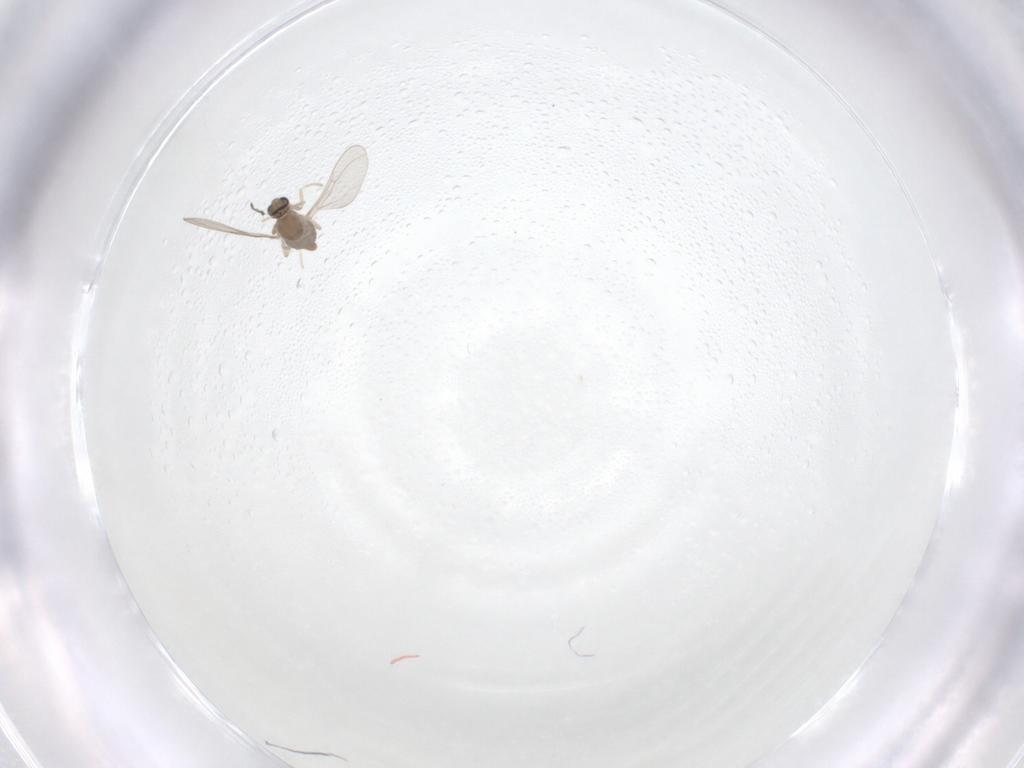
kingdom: Animalia
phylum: Arthropoda
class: Insecta
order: Diptera
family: Cecidomyiidae
